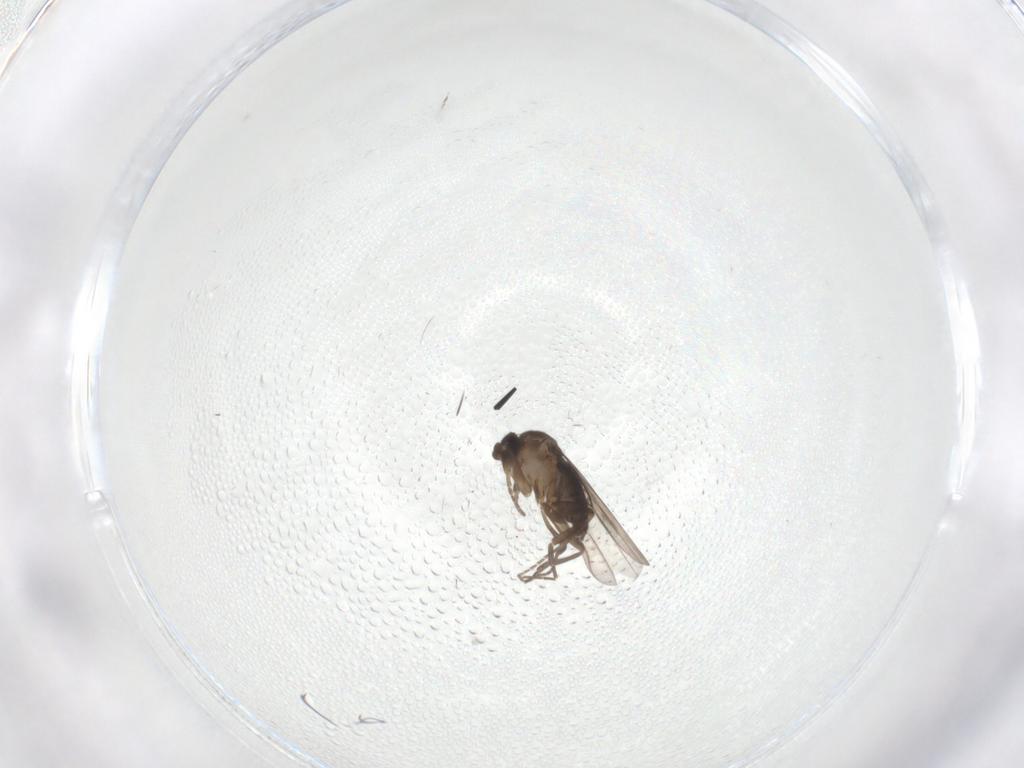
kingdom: Animalia
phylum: Arthropoda
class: Insecta
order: Diptera
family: Phoridae
